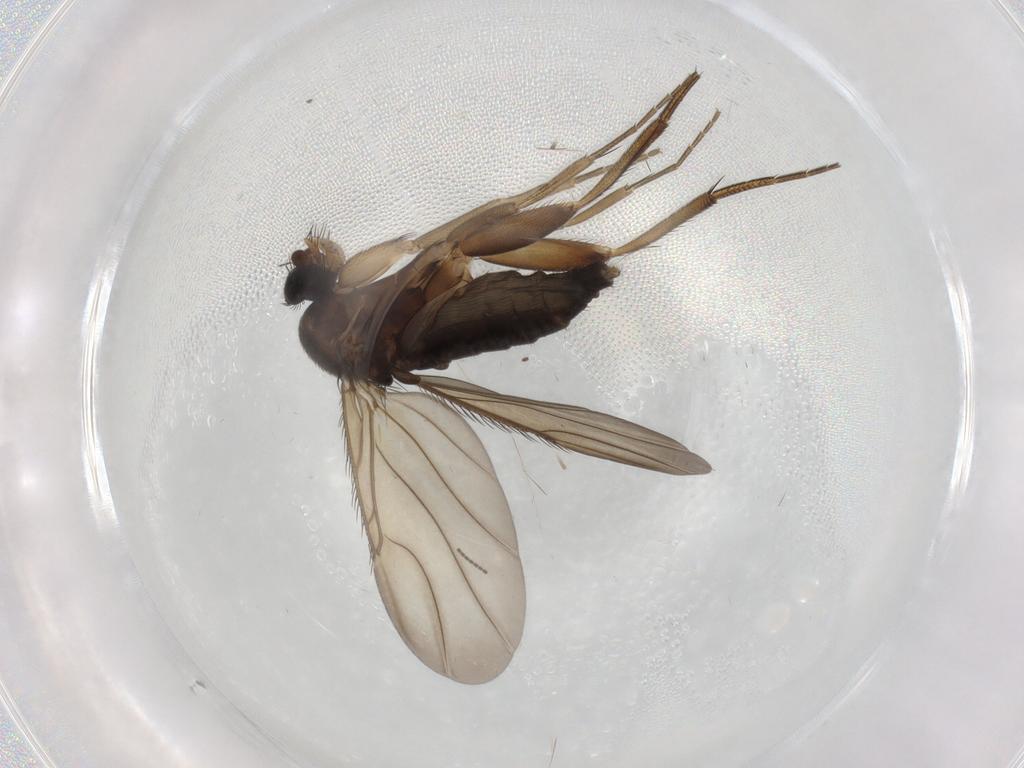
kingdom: Animalia
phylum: Arthropoda
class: Insecta
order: Diptera
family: Phoridae
